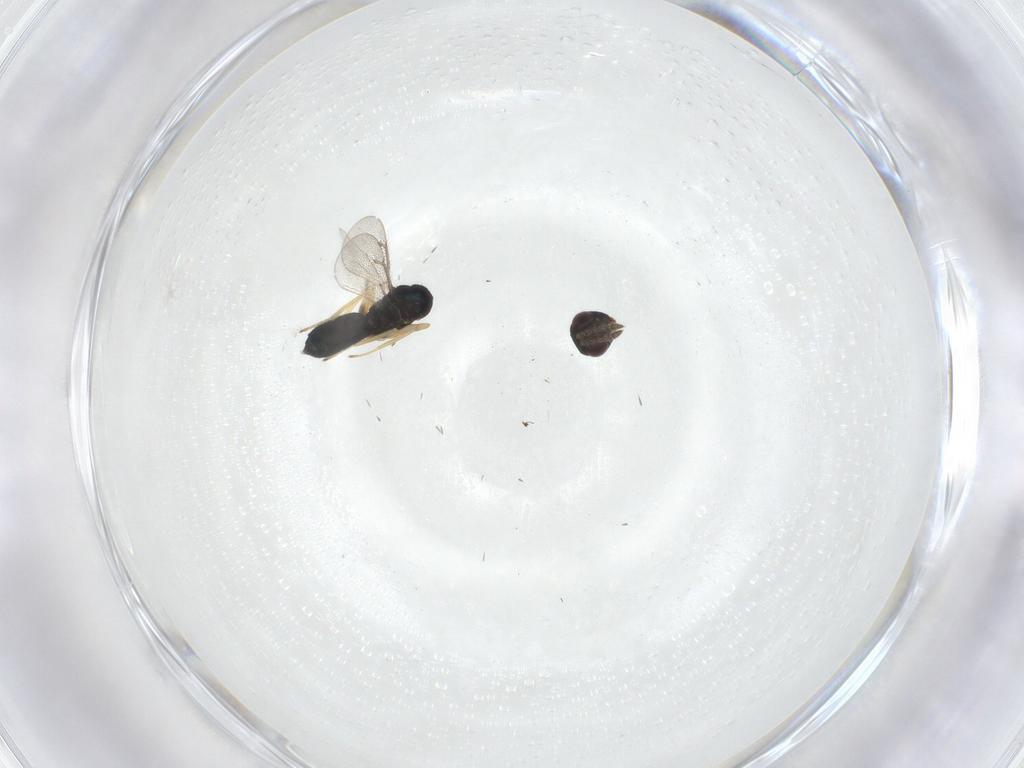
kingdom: Animalia
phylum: Arthropoda
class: Insecta
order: Hymenoptera
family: Eulophidae
